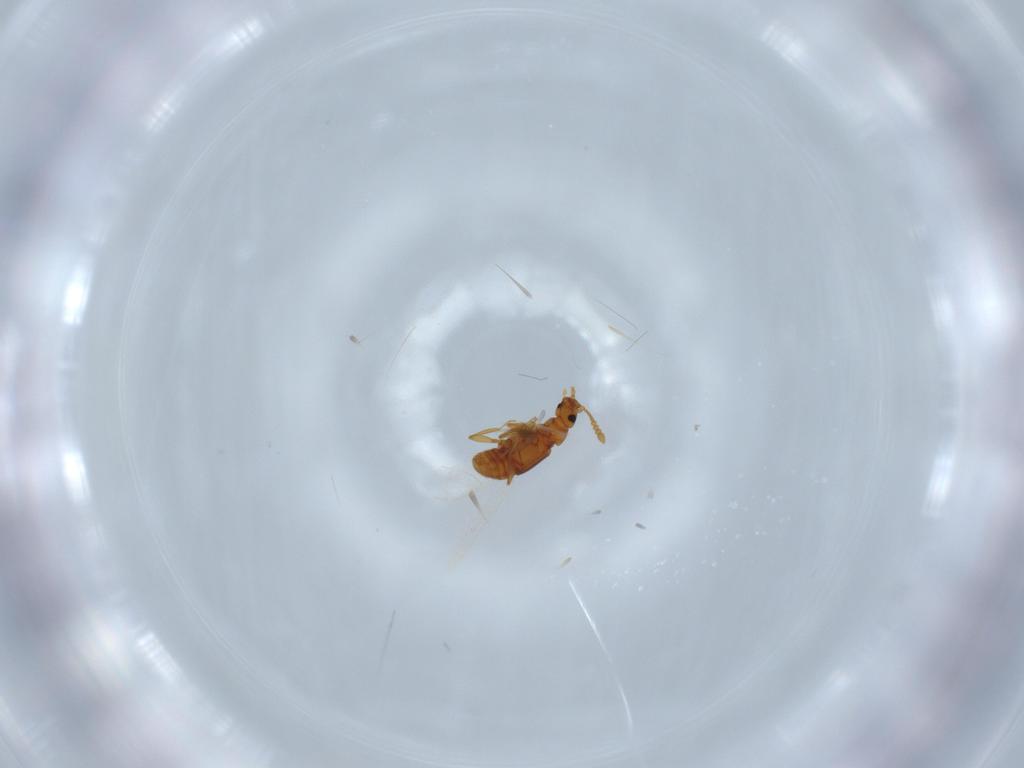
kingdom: Animalia
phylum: Arthropoda
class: Insecta
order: Coleoptera
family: Staphylinidae
